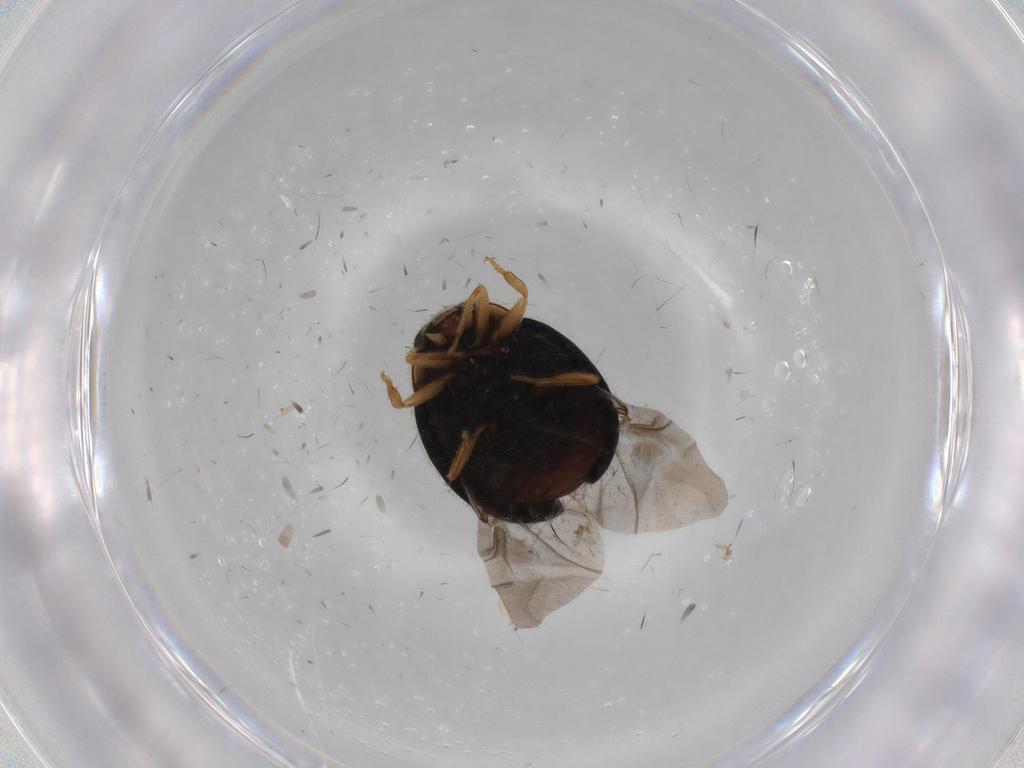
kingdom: Animalia
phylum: Arthropoda
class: Insecta
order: Coleoptera
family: Coccinellidae
